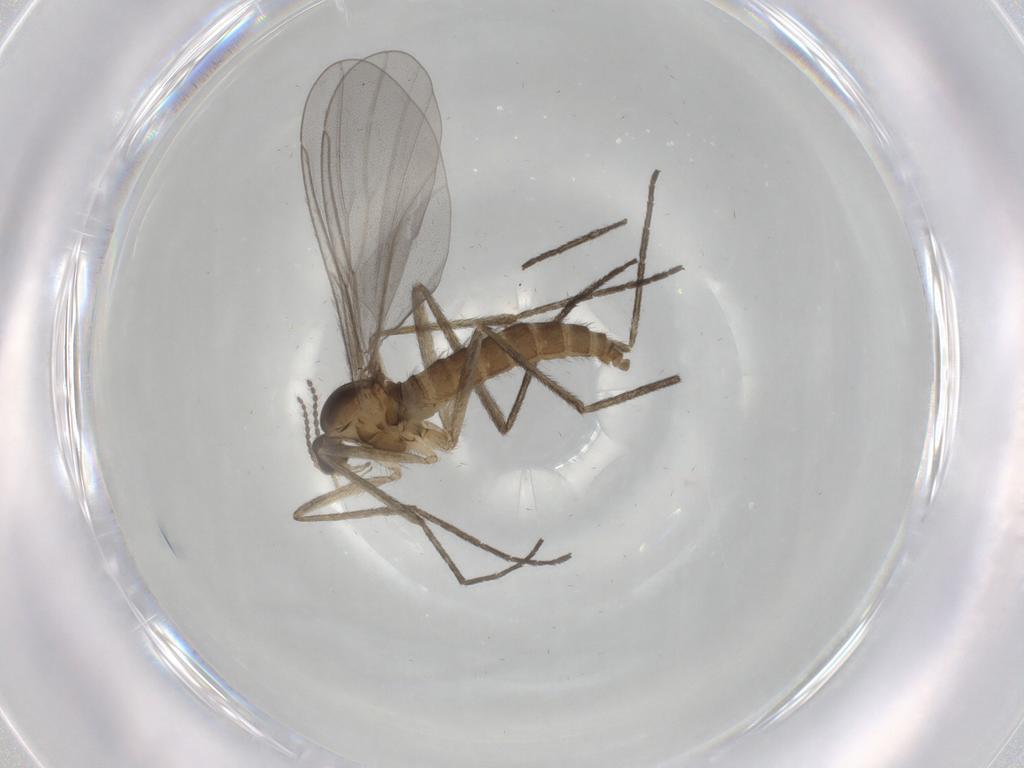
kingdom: Animalia
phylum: Arthropoda
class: Insecta
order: Diptera
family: Cecidomyiidae
